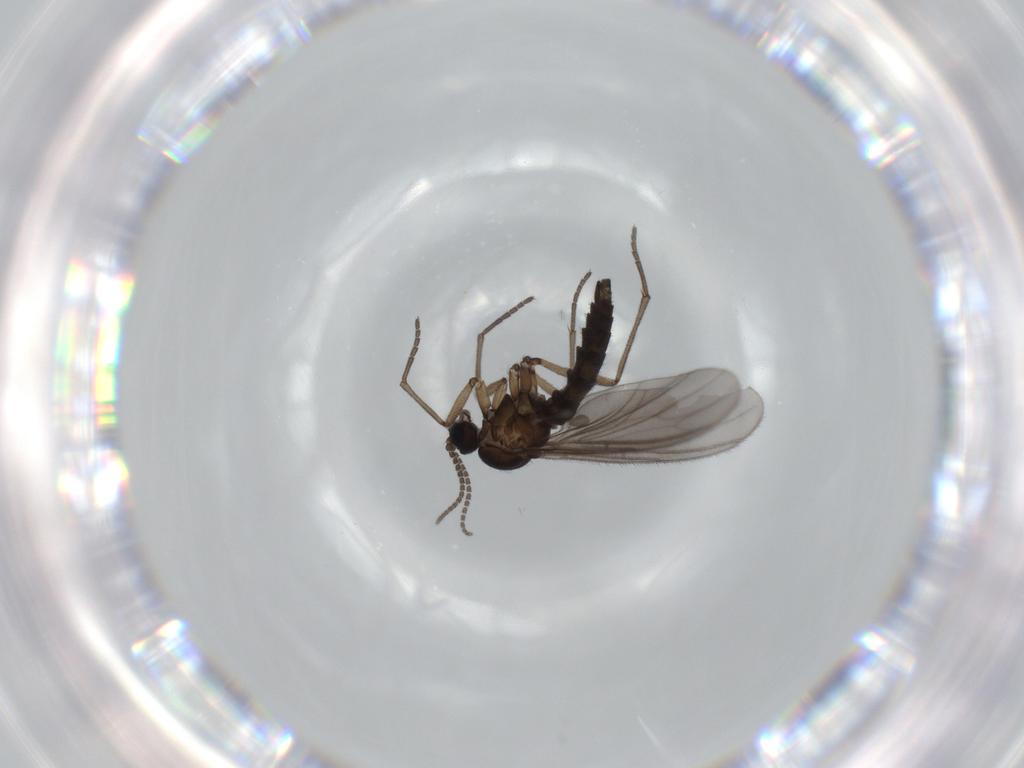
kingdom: Animalia
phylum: Arthropoda
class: Insecta
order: Diptera
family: Sciaridae
